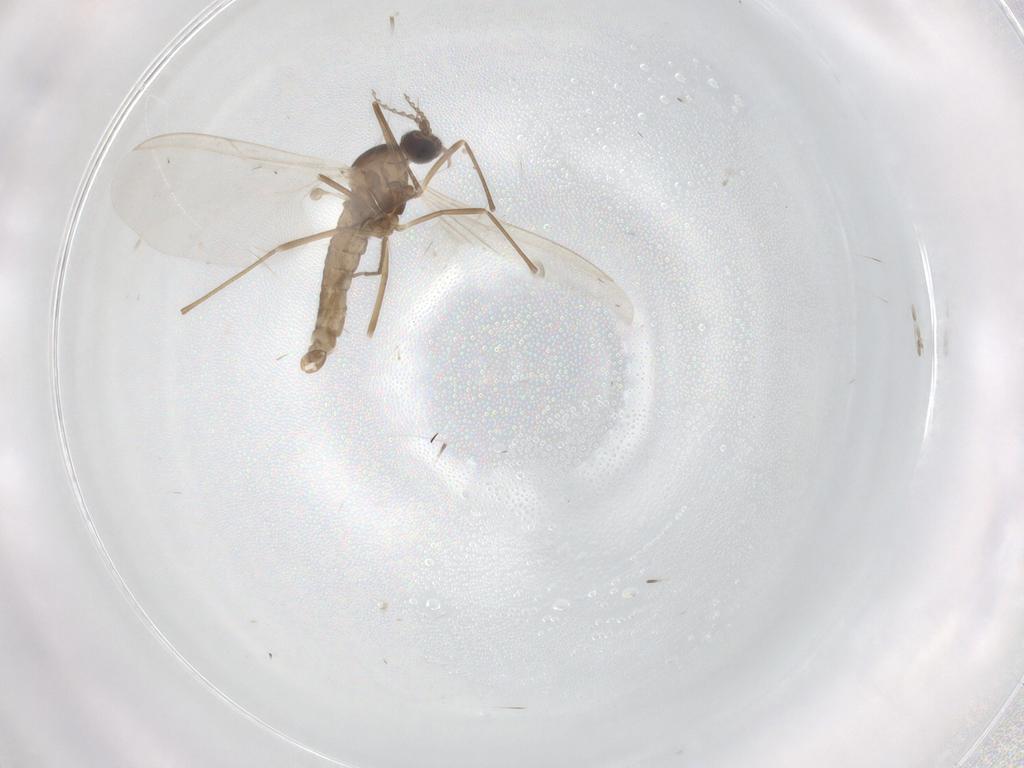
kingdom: Animalia
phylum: Arthropoda
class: Insecta
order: Diptera
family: Cecidomyiidae
